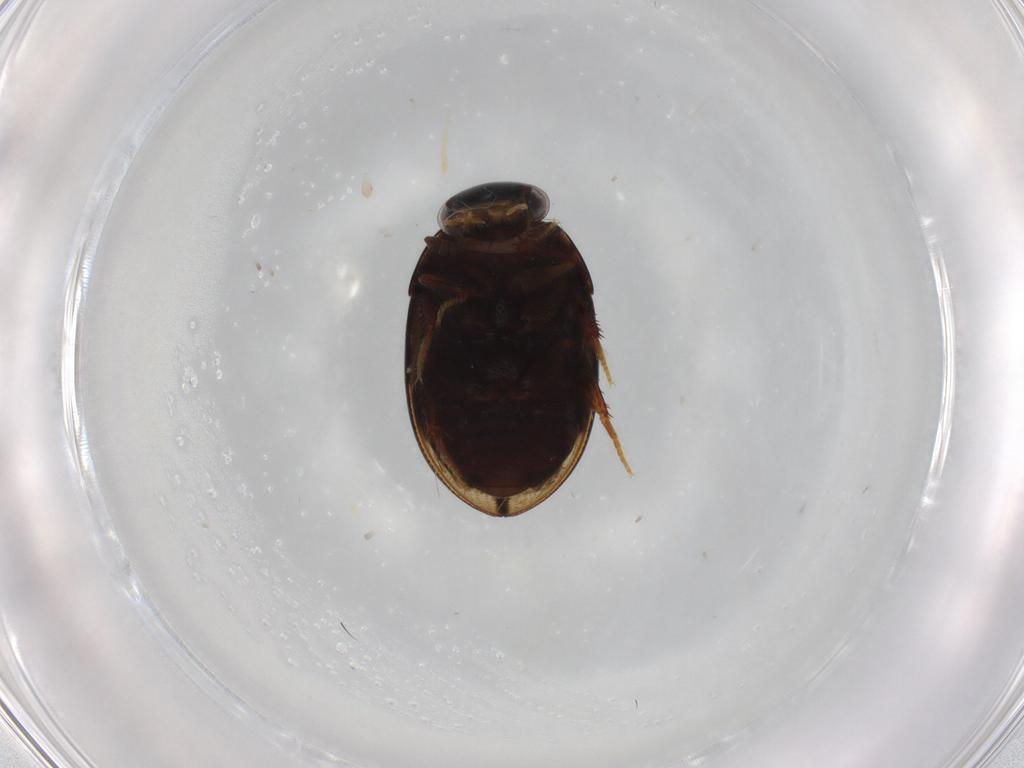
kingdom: Animalia
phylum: Arthropoda
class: Insecta
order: Coleoptera
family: Hydrophilidae
